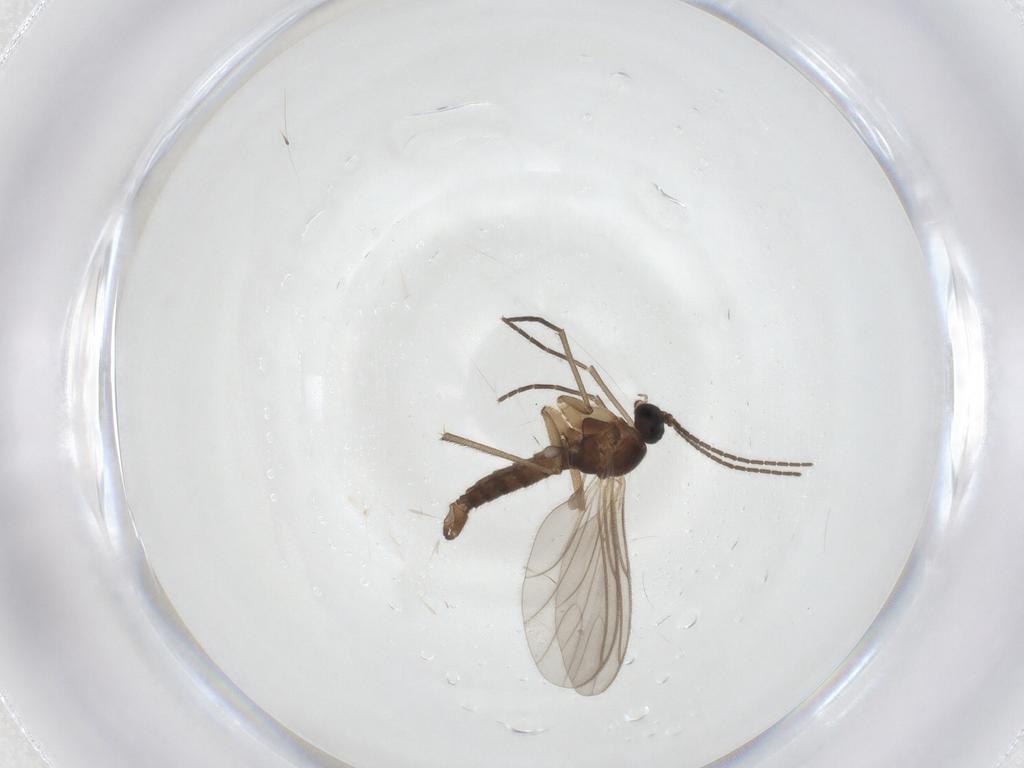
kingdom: Animalia
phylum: Arthropoda
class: Insecta
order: Diptera
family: Sciaridae
